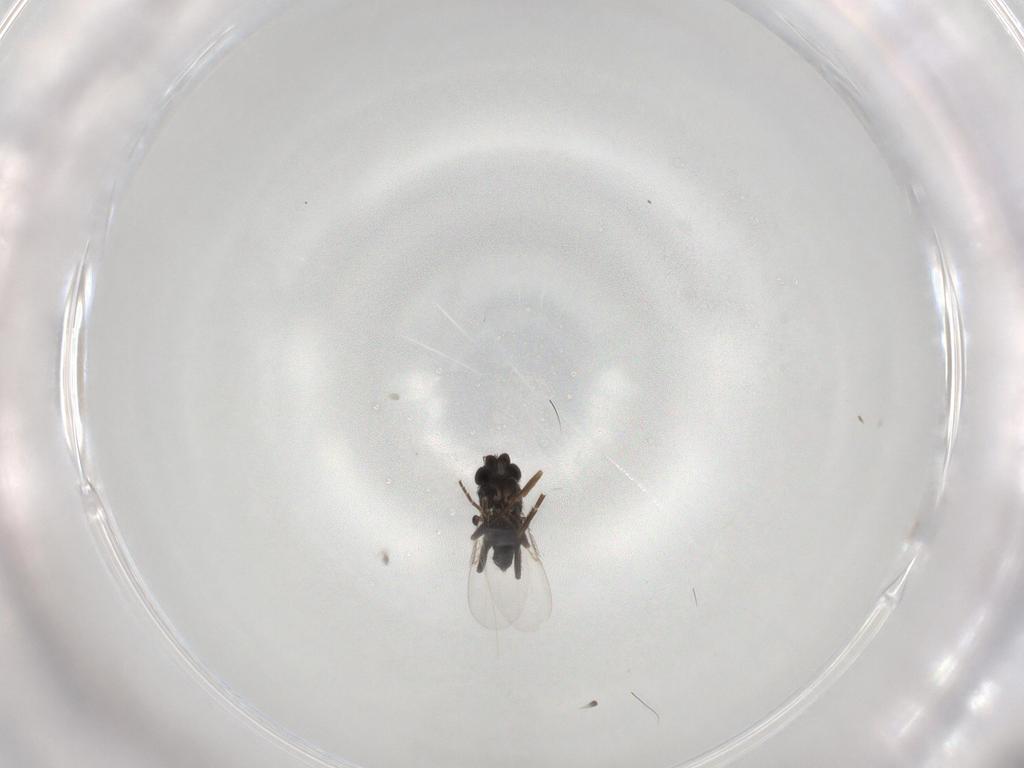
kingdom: Animalia
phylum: Arthropoda
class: Insecta
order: Diptera
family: Phoridae
